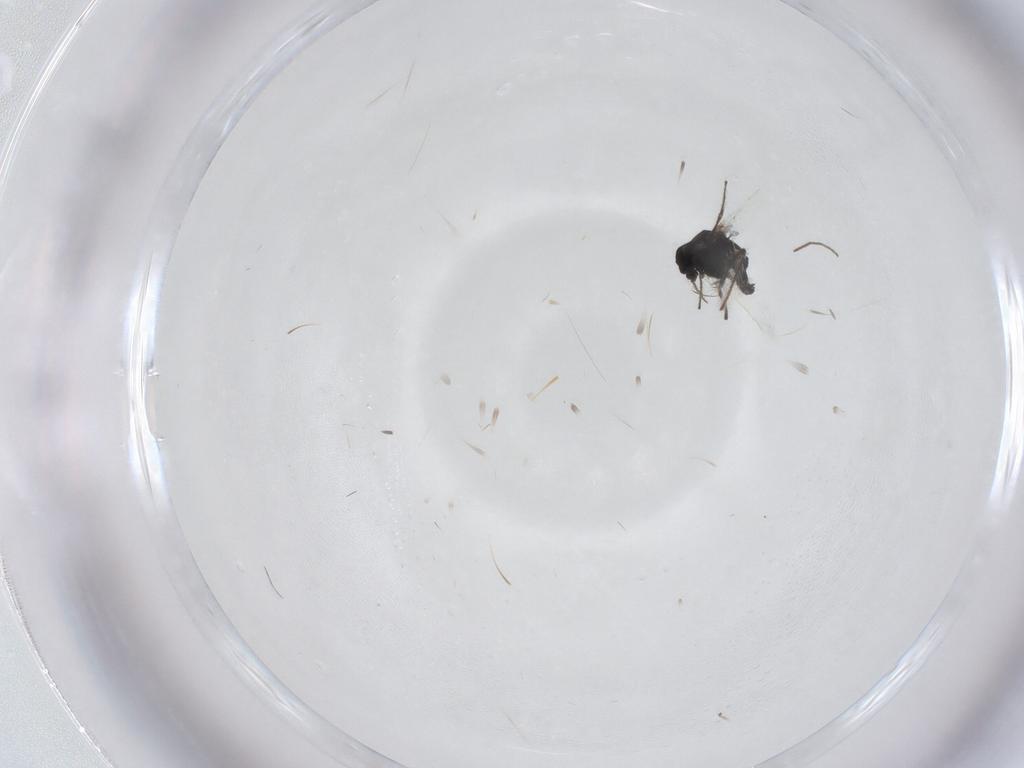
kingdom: Animalia
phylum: Arthropoda
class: Insecta
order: Diptera
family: Chironomidae
